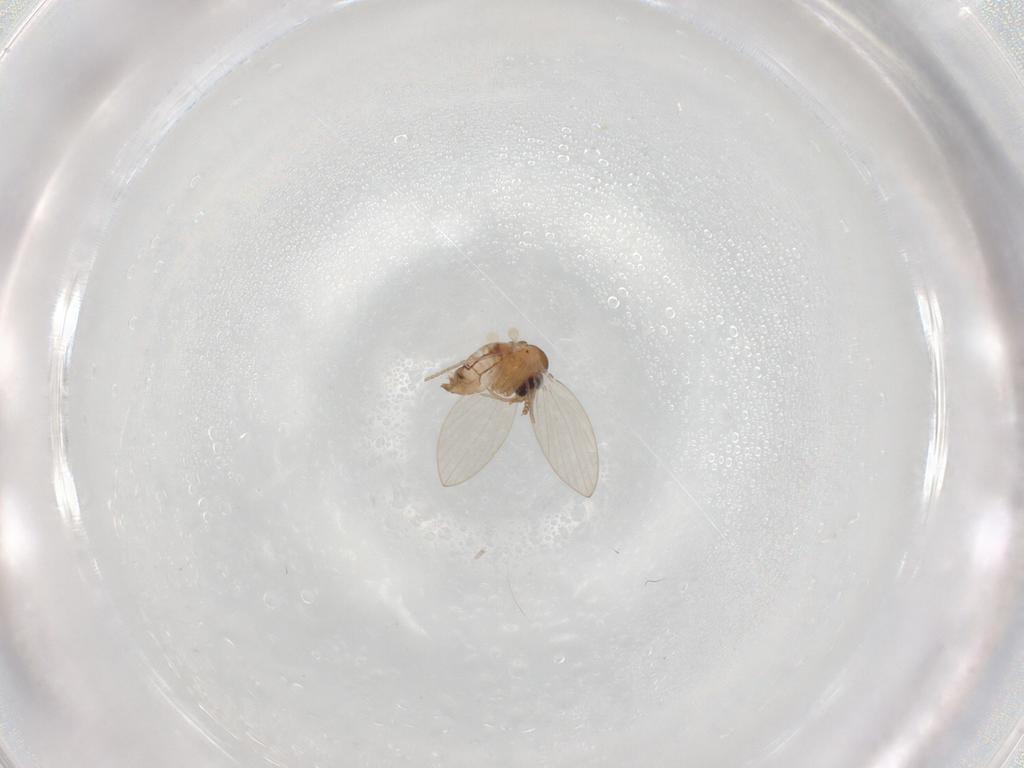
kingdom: Animalia
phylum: Arthropoda
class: Insecta
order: Diptera
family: Psychodidae
